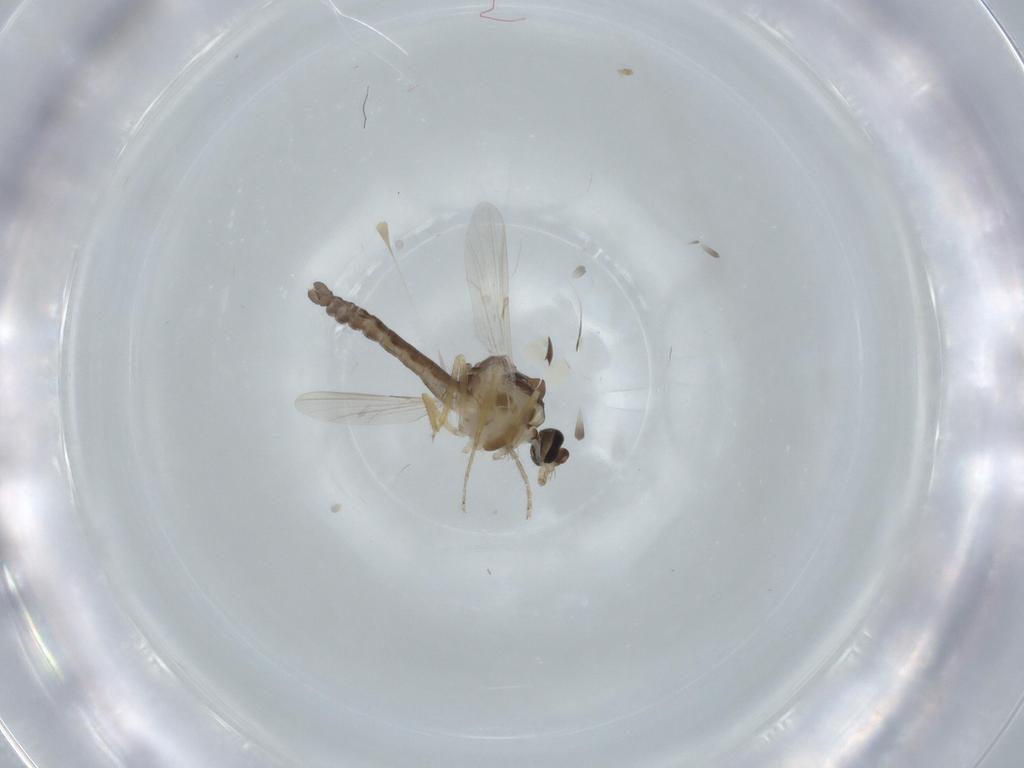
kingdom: Animalia
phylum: Arthropoda
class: Insecta
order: Diptera
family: Ceratopogonidae
